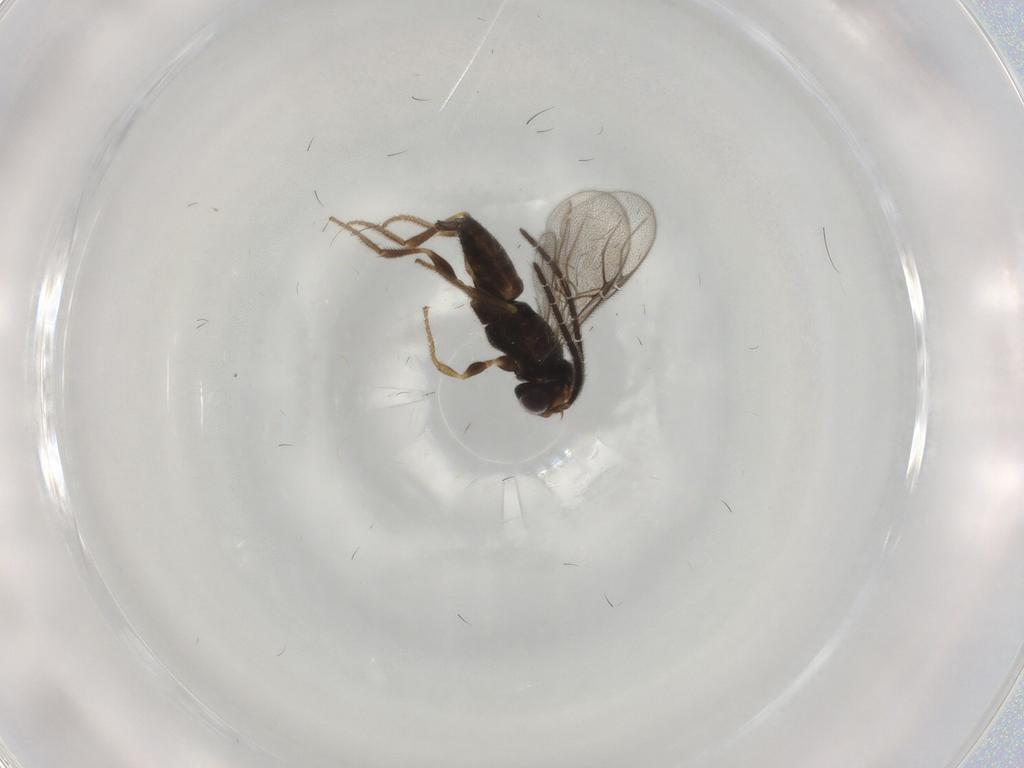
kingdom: Animalia
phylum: Arthropoda
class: Insecta
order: Hymenoptera
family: Dryinidae
